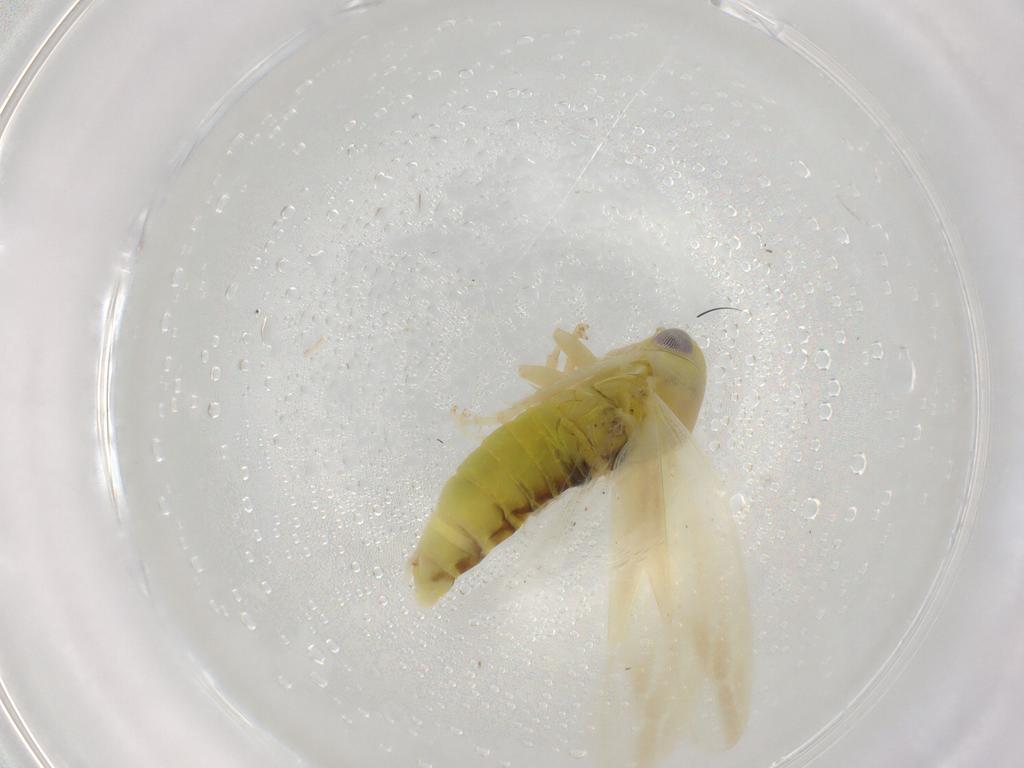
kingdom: Animalia
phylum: Arthropoda
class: Insecta
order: Hemiptera
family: Cicadellidae
